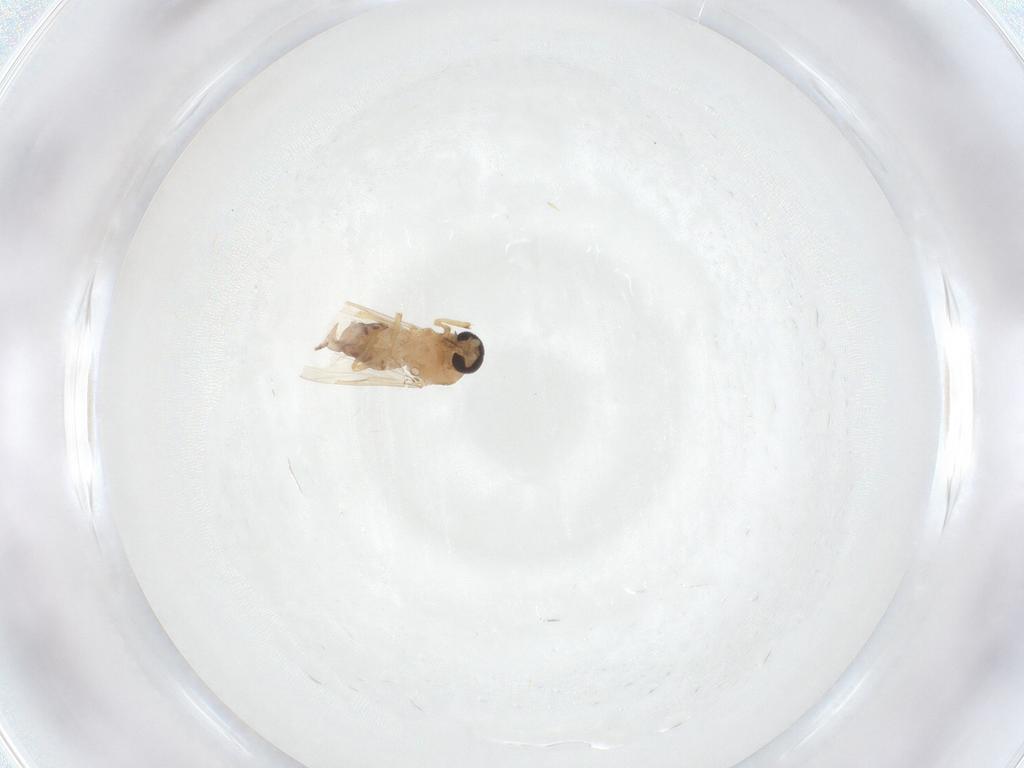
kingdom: Animalia
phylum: Arthropoda
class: Insecta
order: Diptera
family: Ceratopogonidae
